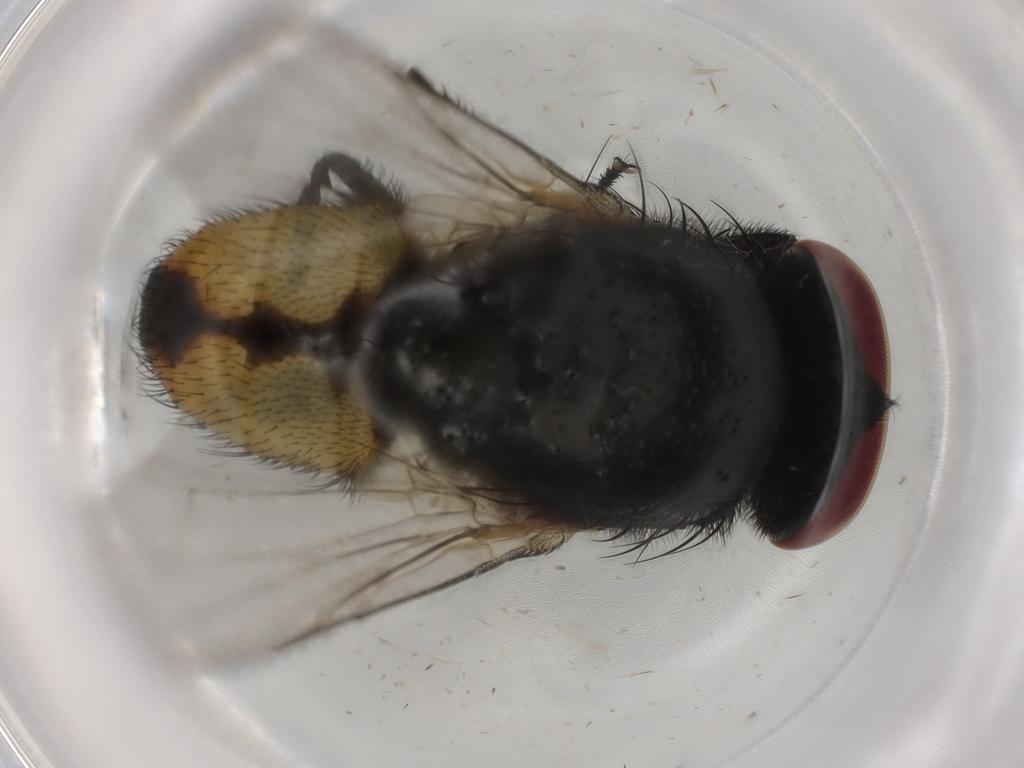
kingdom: Animalia
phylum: Arthropoda
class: Insecta
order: Diptera
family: Muscidae
